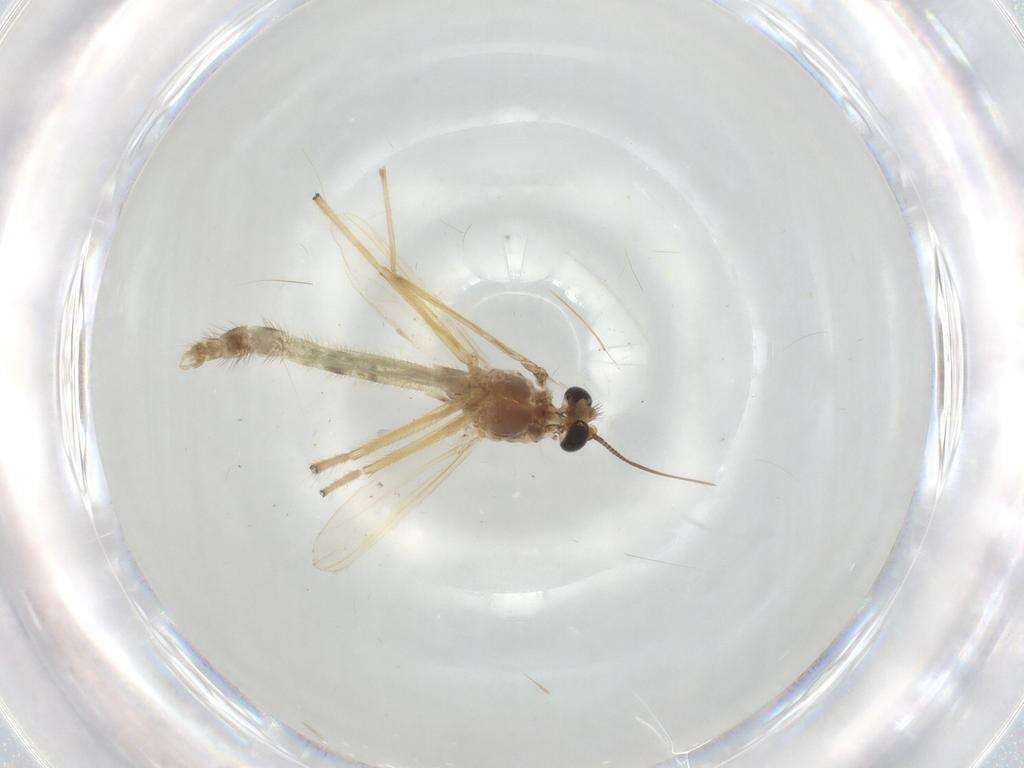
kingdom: Animalia
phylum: Arthropoda
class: Insecta
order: Diptera
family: Chironomidae
